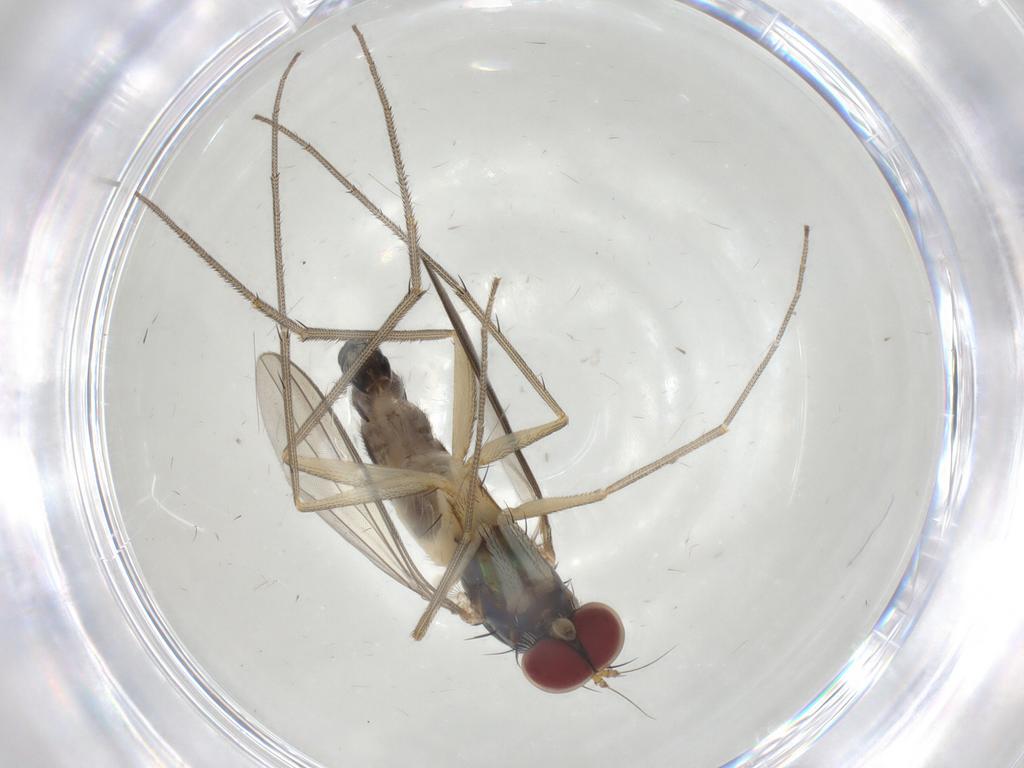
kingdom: Animalia
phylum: Arthropoda
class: Insecta
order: Diptera
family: Dolichopodidae
